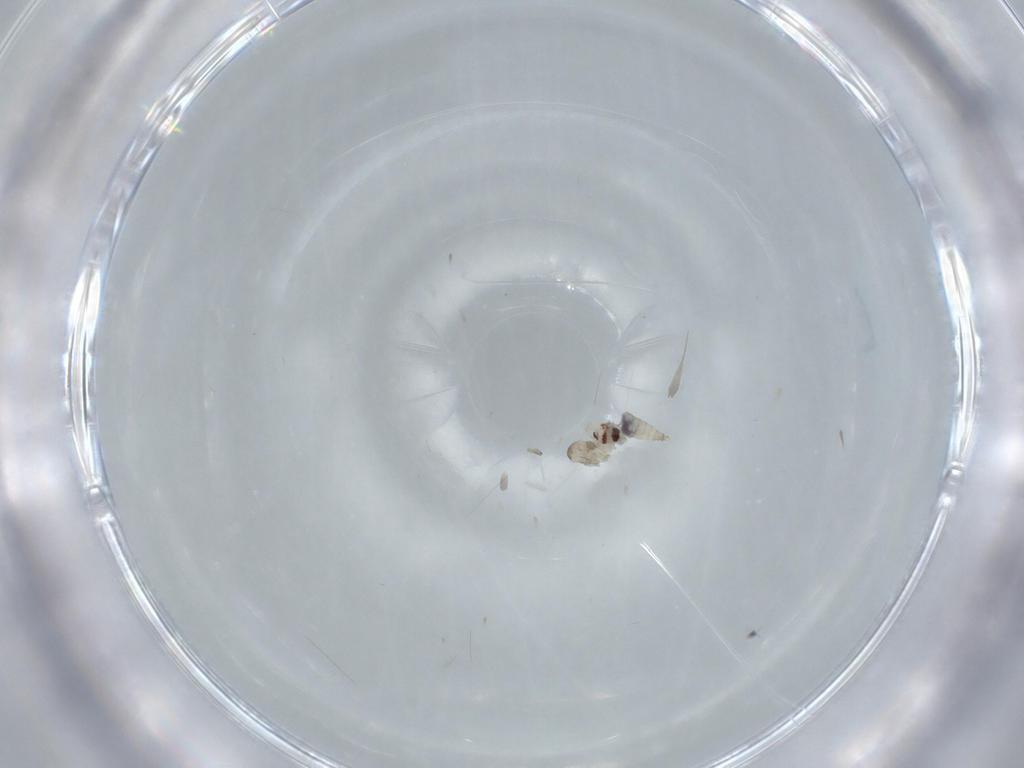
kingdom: Animalia
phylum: Arthropoda
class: Insecta
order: Diptera
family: Cecidomyiidae
